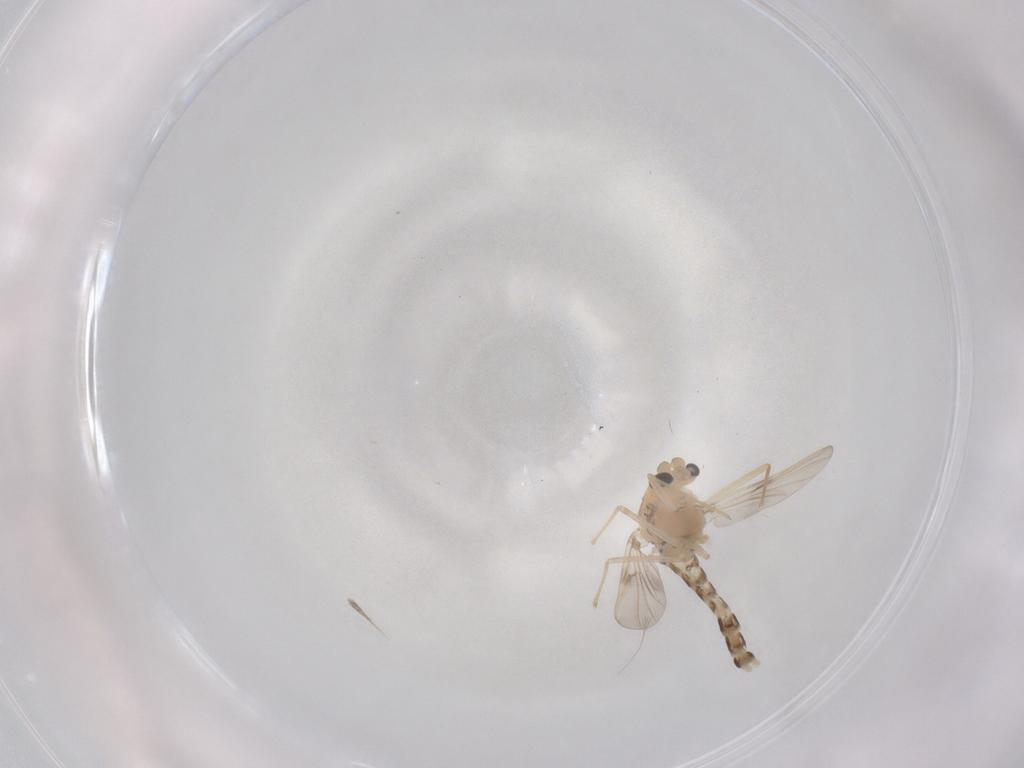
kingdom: Animalia
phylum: Arthropoda
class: Insecta
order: Diptera
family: Chironomidae
